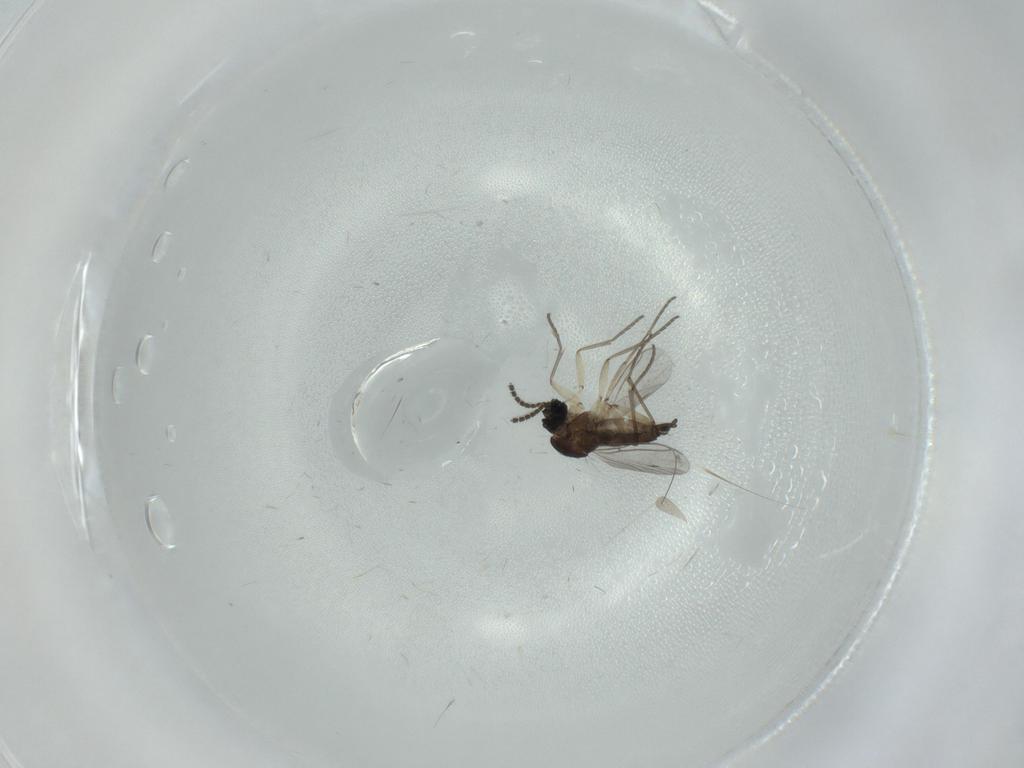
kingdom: Animalia
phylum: Arthropoda
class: Insecta
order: Diptera
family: Sciaridae
